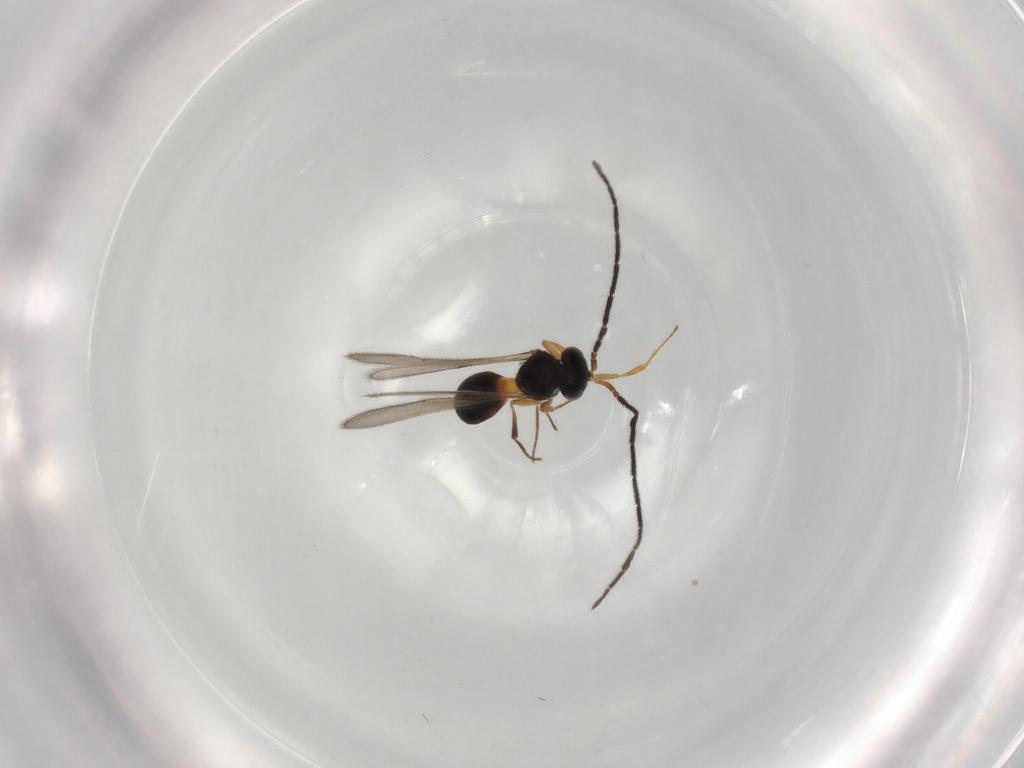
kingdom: Animalia
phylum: Arthropoda
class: Insecta
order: Hymenoptera
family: Scelionidae
